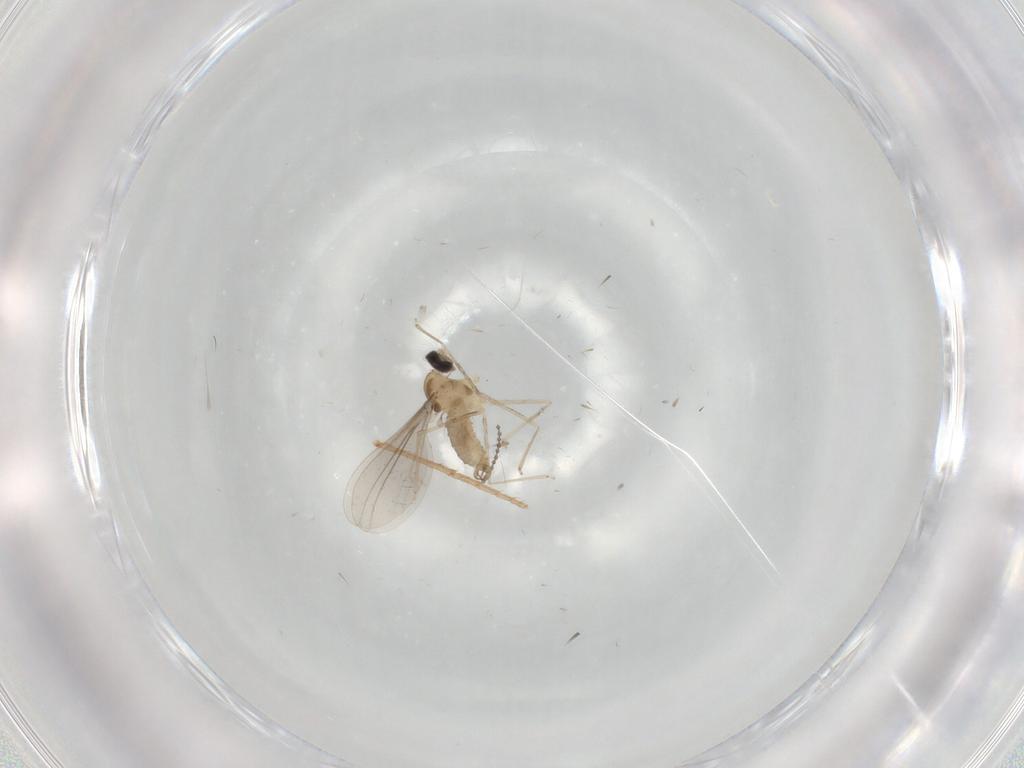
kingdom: Animalia
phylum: Arthropoda
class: Insecta
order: Diptera
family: Cecidomyiidae
